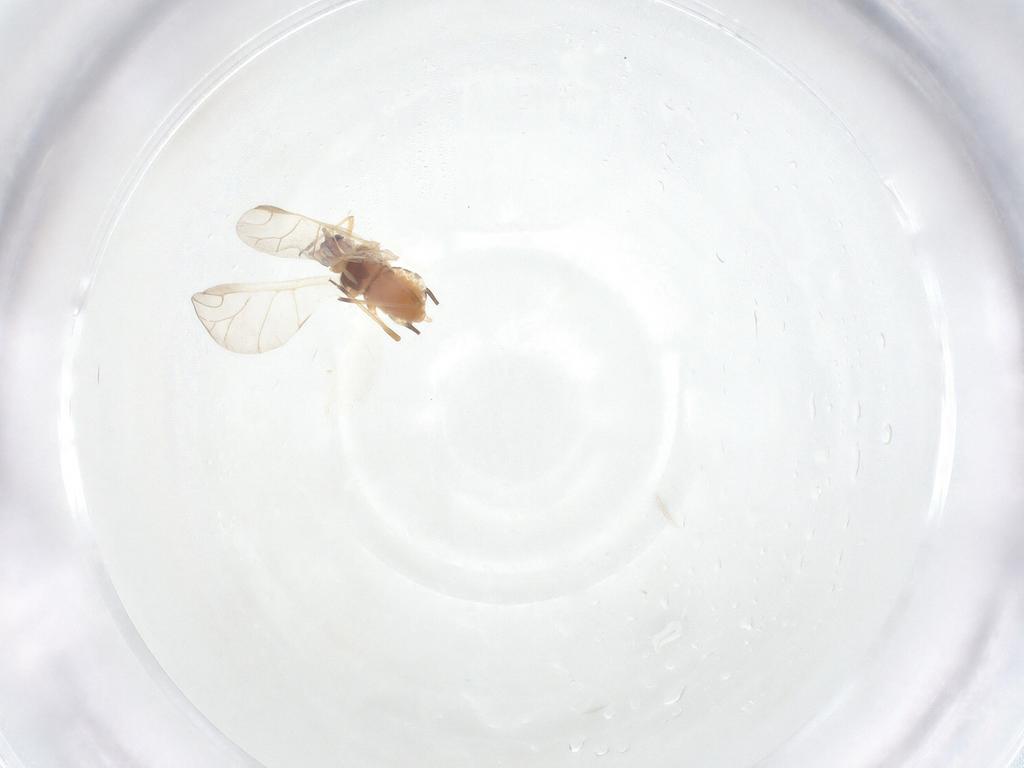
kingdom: Animalia
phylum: Arthropoda
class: Insecta
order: Hemiptera
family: Aphididae
